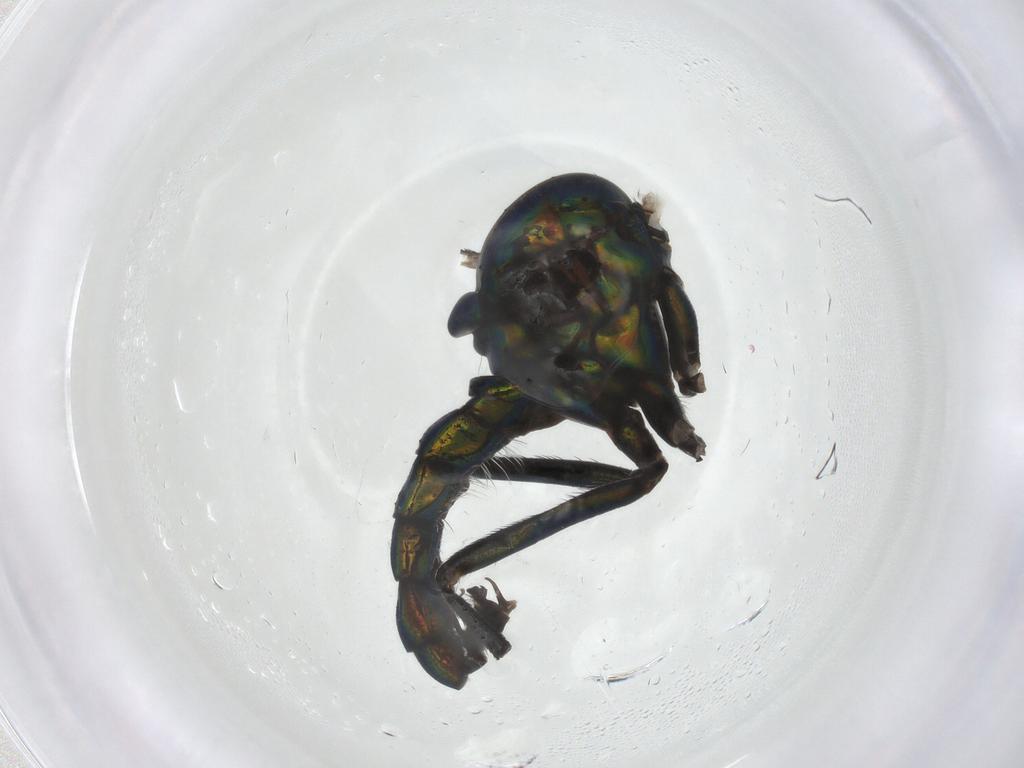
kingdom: Animalia
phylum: Arthropoda
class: Insecta
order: Diptera
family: Dolichopodidae
